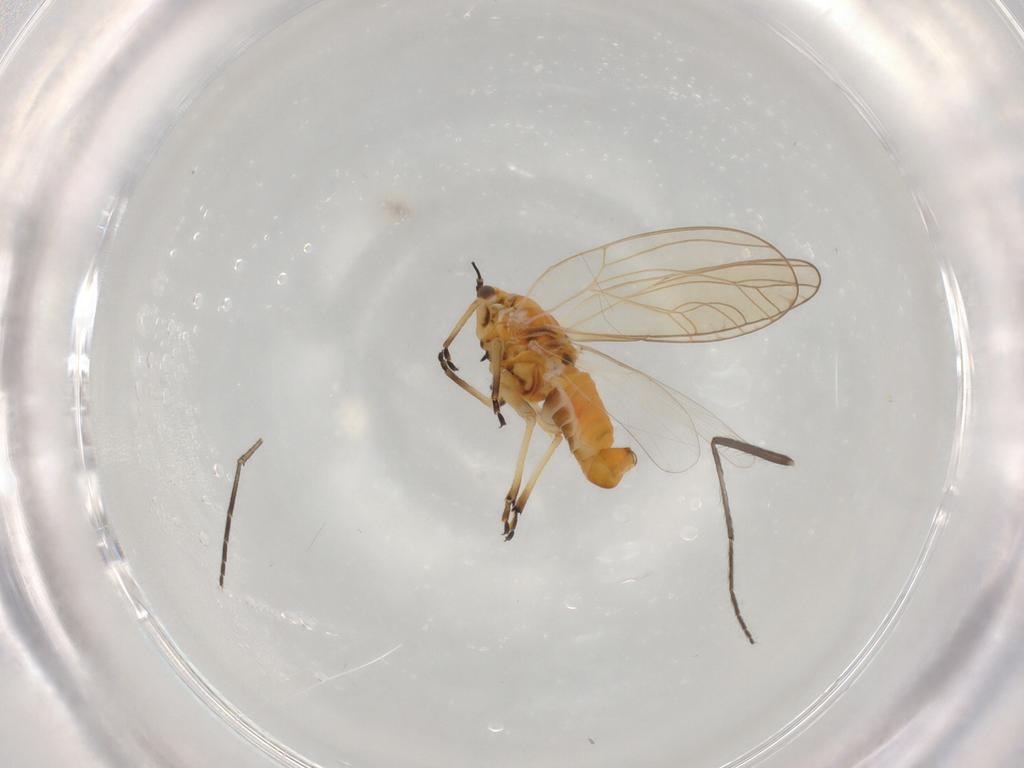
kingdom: Animalia
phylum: Arthropoda
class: Insecta
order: Hemiptera
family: Triozidae
